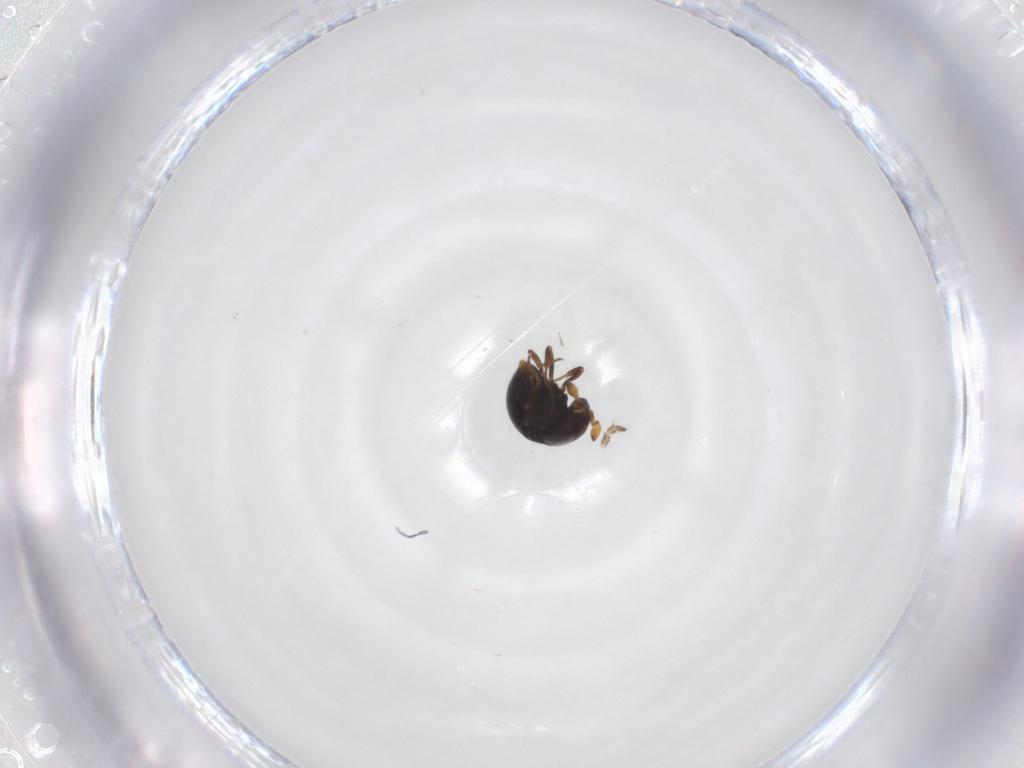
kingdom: Animalia
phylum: Arthropoda
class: Insecta
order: Hymenoptera
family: Scelionidae
